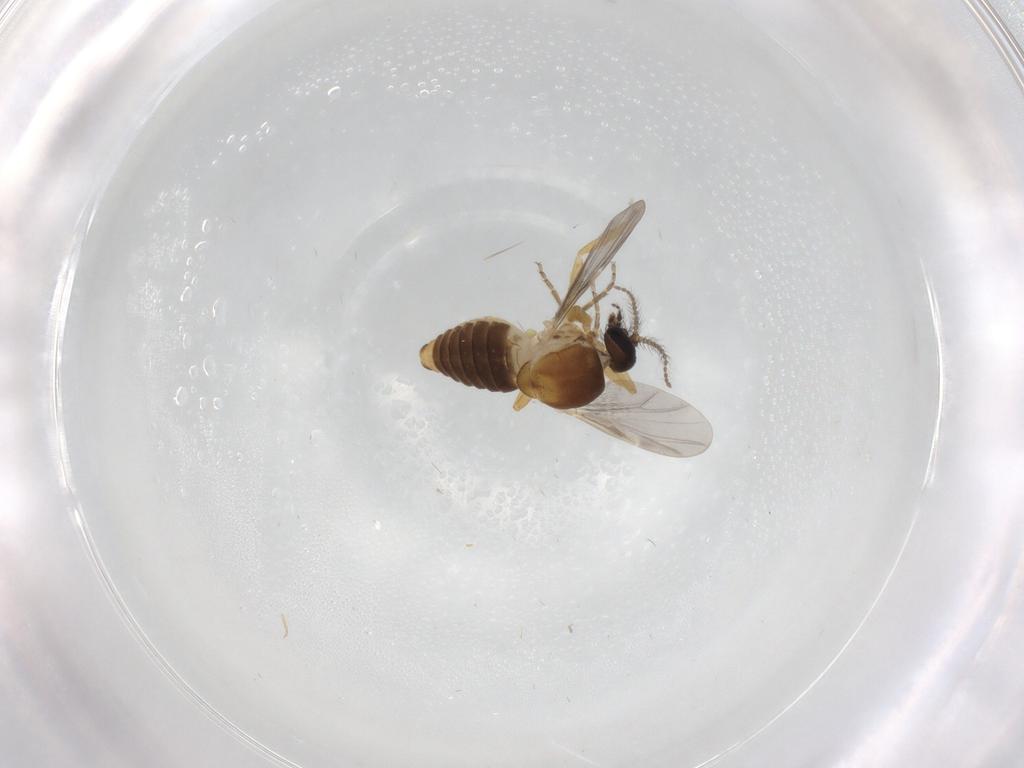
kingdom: Animalia
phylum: Arthropoda
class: Insecta
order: Diptera
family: Ceratopogonidae
